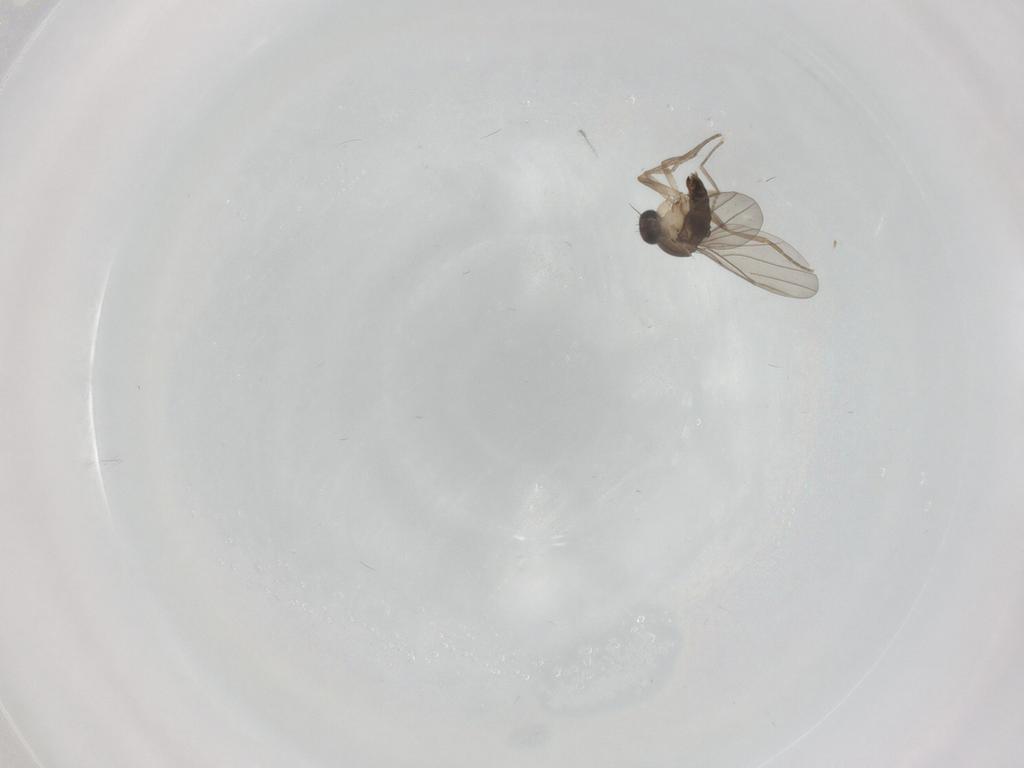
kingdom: Animalia
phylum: Arthropoda
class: Insecta
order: Diptera
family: Phoridae
